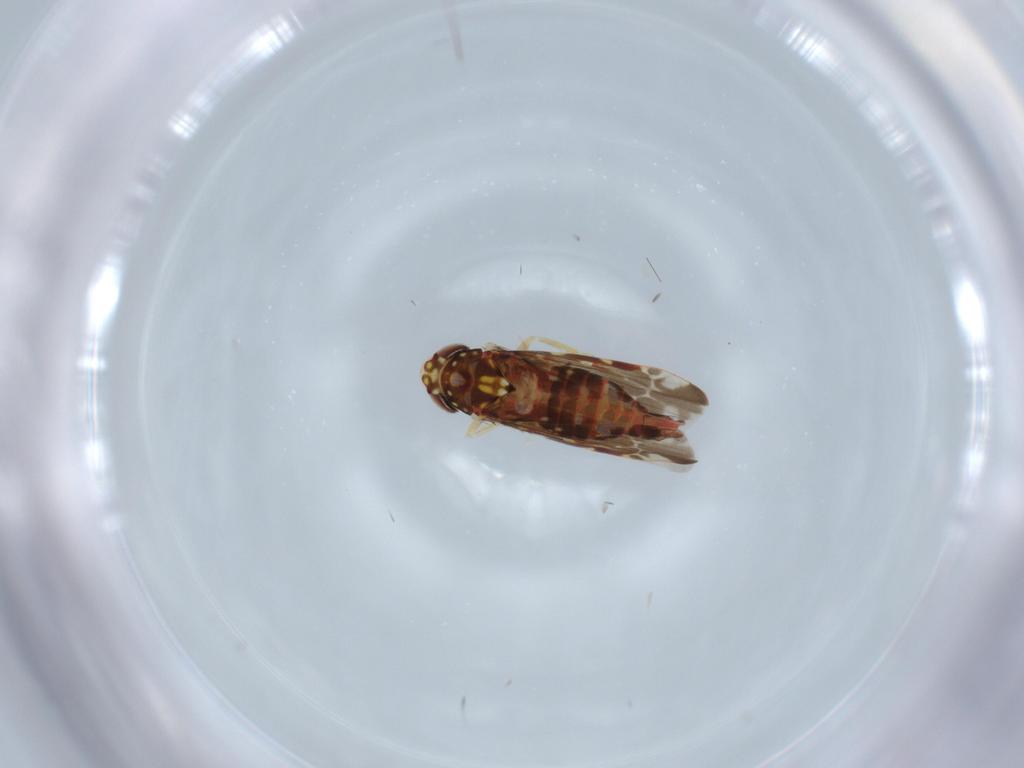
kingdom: Animalia
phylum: Arthropoda
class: Insecta
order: Hemiptera
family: Cicadellidae
